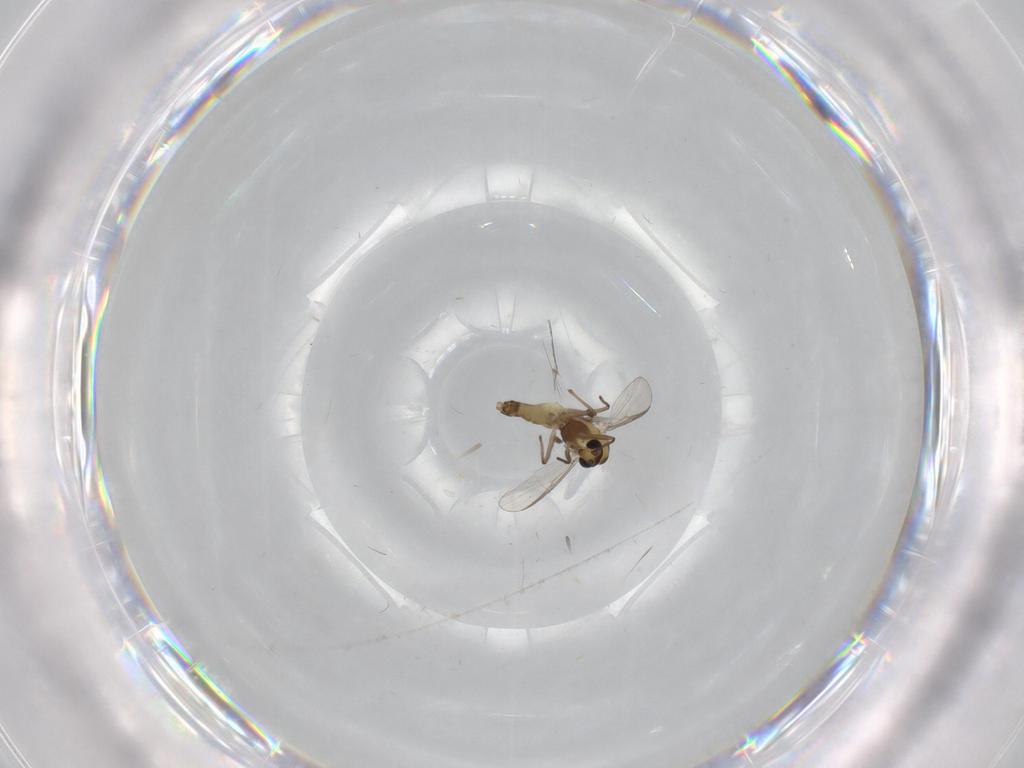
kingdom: Animalia
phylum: Arthropoda
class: Insecta
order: Diptera
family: Chironomidae
